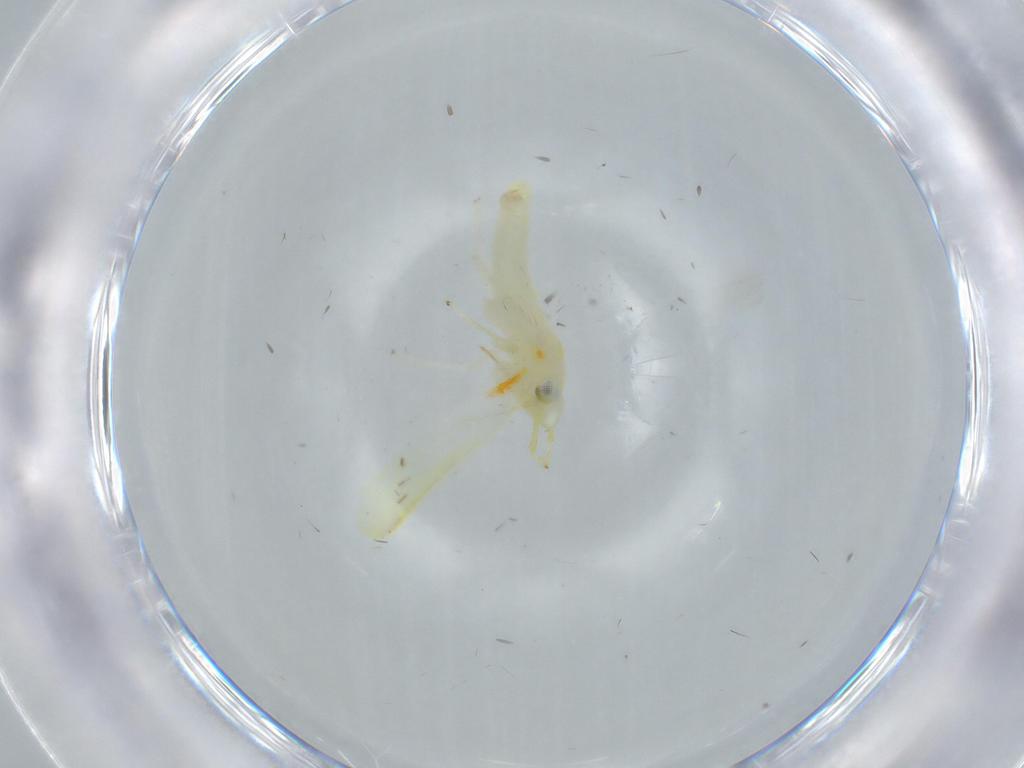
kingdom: Animalia
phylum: Arthropoda
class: Insecta
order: Hemiptera
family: Cicadellidae
